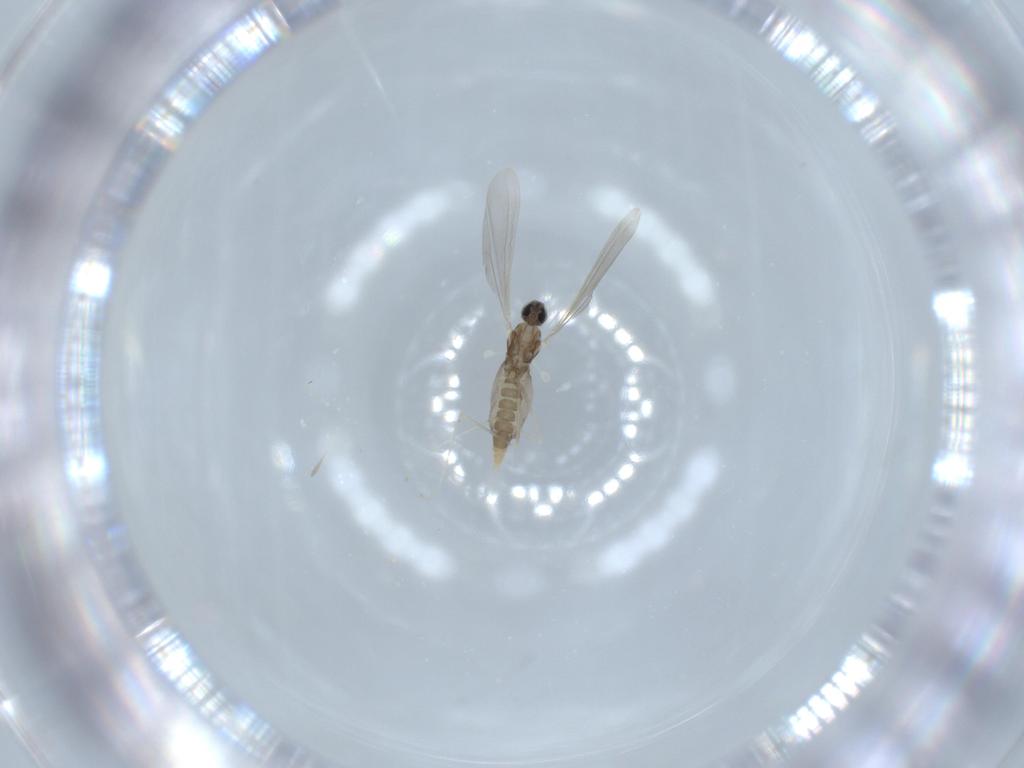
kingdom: Animalia
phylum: Arthropoda
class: Insecta
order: Diptera
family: Cecidomyiidae
